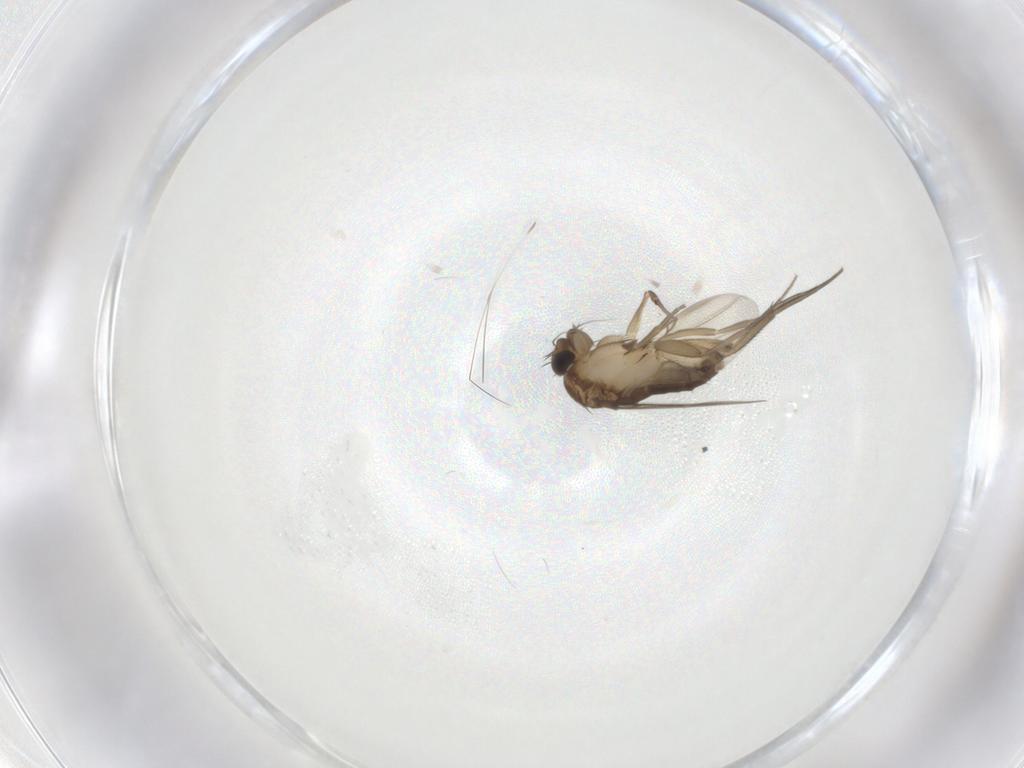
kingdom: Animalia
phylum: Arthropoda
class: Insecta
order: Diptera
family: Phoridae
